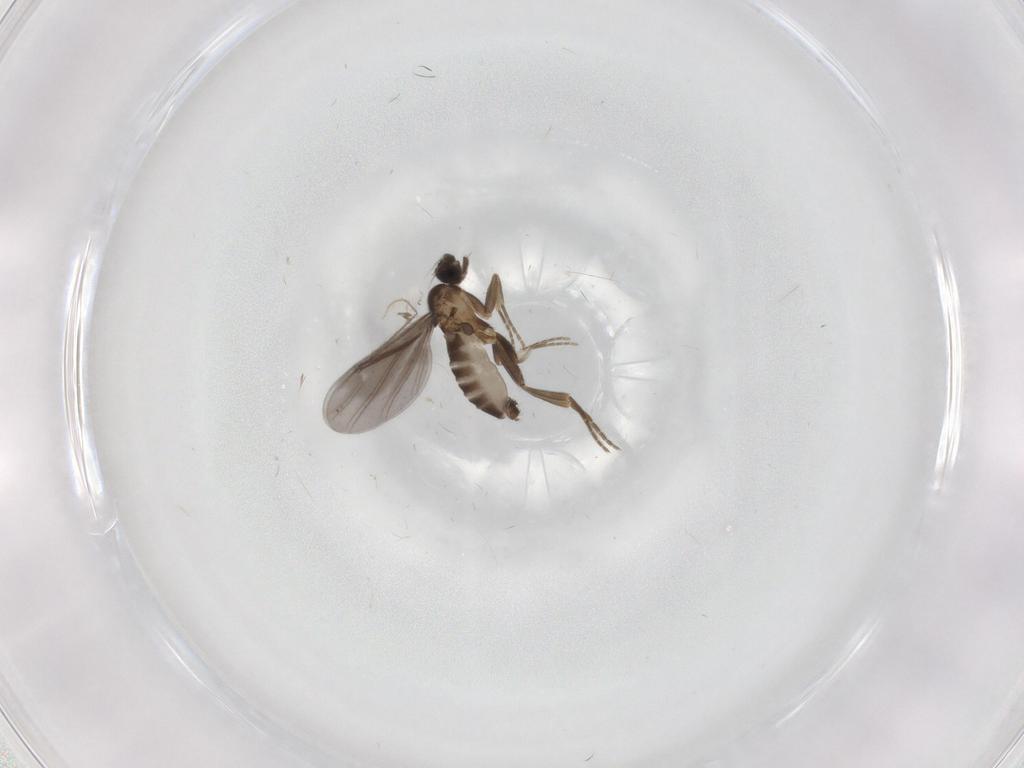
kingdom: Animalia
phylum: Arthropoda
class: Insecta
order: Diptera
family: Phoridae
